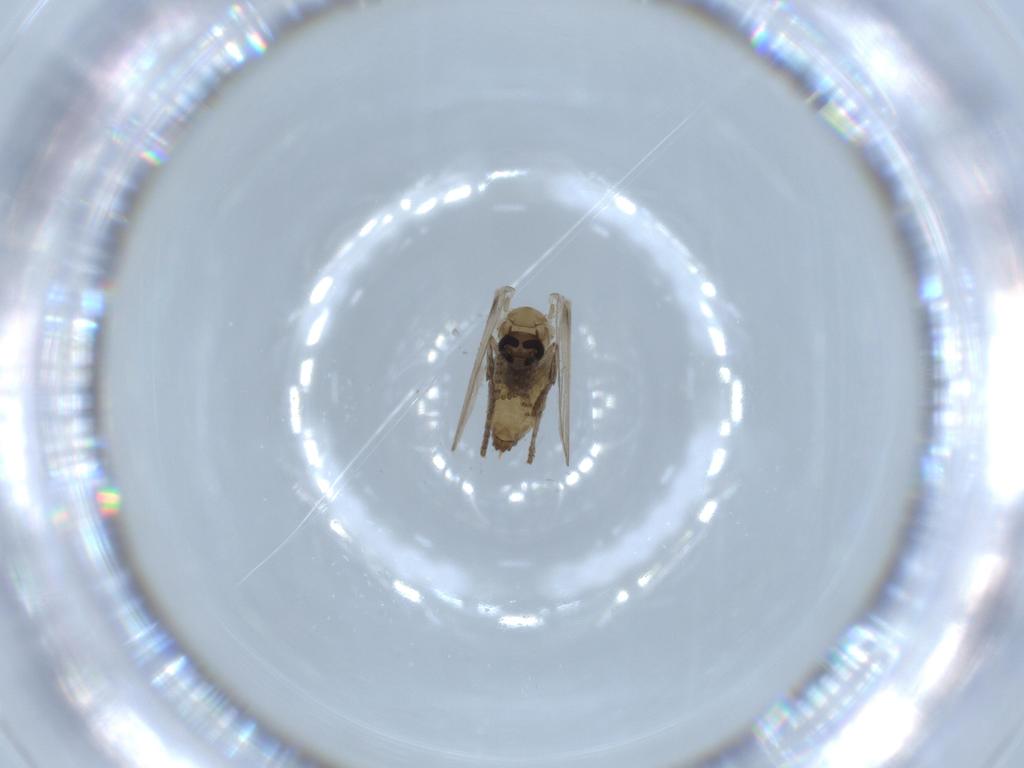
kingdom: Animalia
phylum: Arthropoda
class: Insecta
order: Diptera
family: Psychodidae
